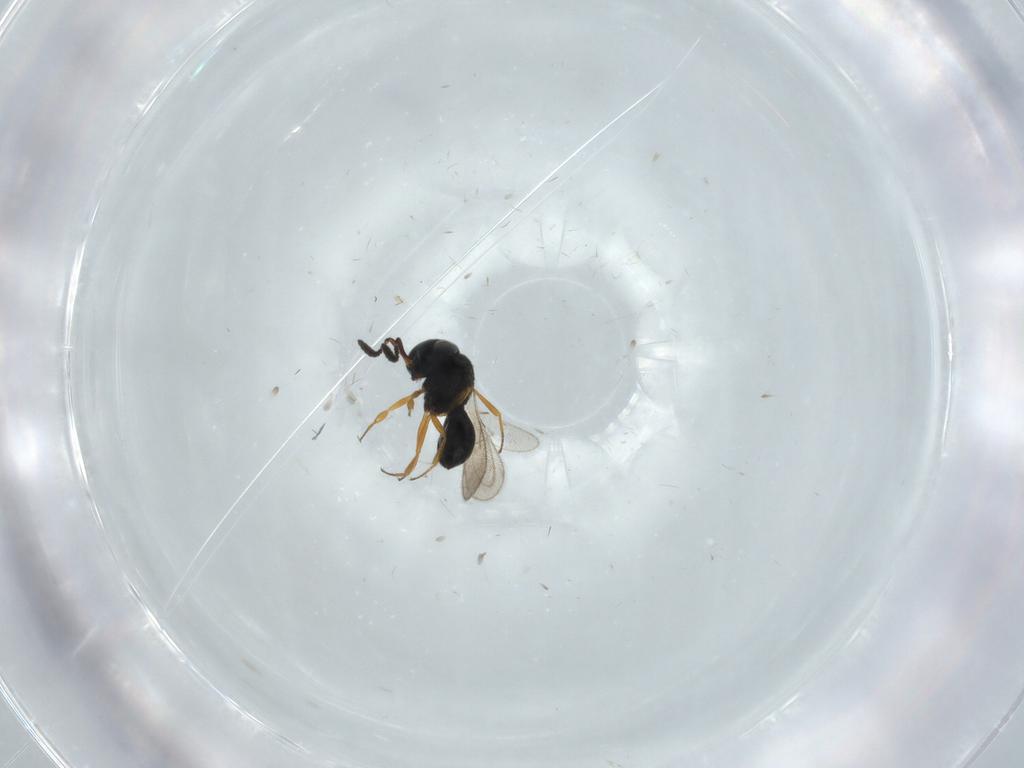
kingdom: Animalia
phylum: Arthropoda
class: Insecta
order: Hymenoptera
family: Scelionidae
